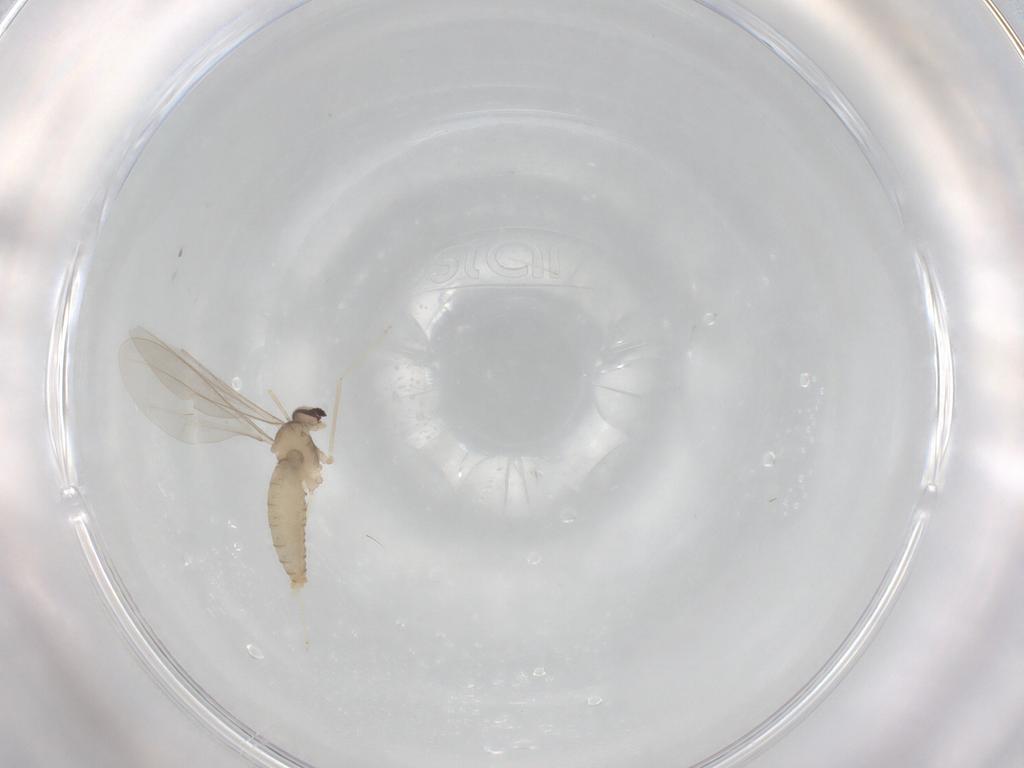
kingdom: Animalia
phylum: Arthropoda
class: Insecta
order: Diptera
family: Cecidomyiidae
